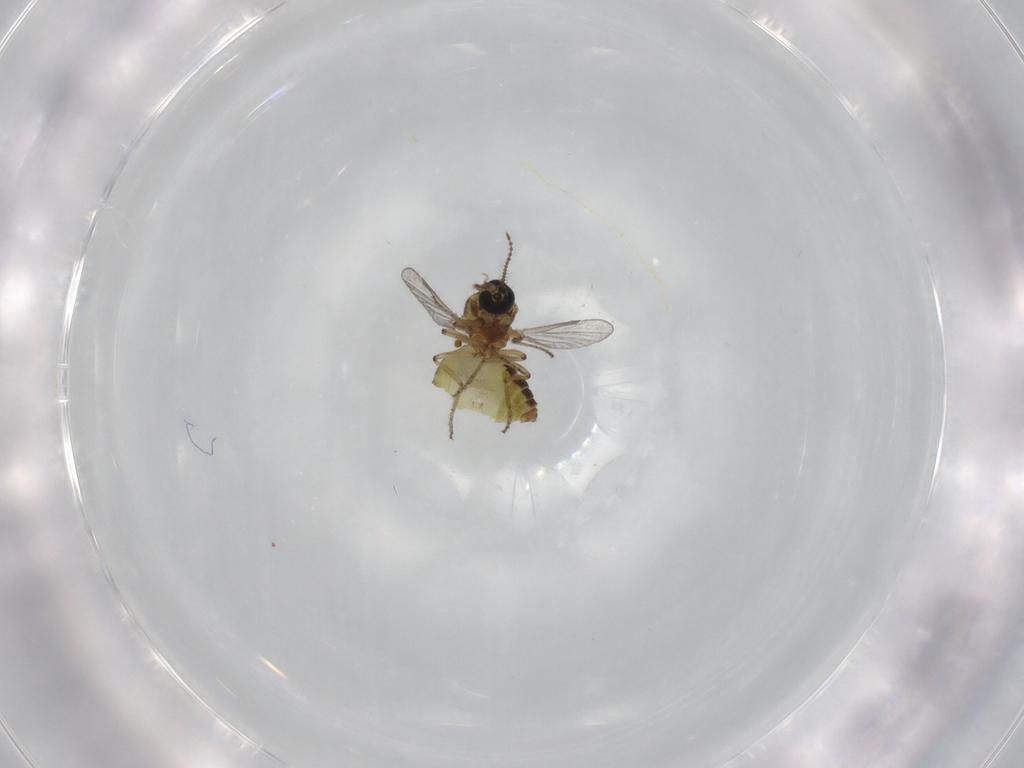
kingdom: Animalia
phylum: Arthropoda
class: Insecta
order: Diptera
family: Ceratopogonidae
